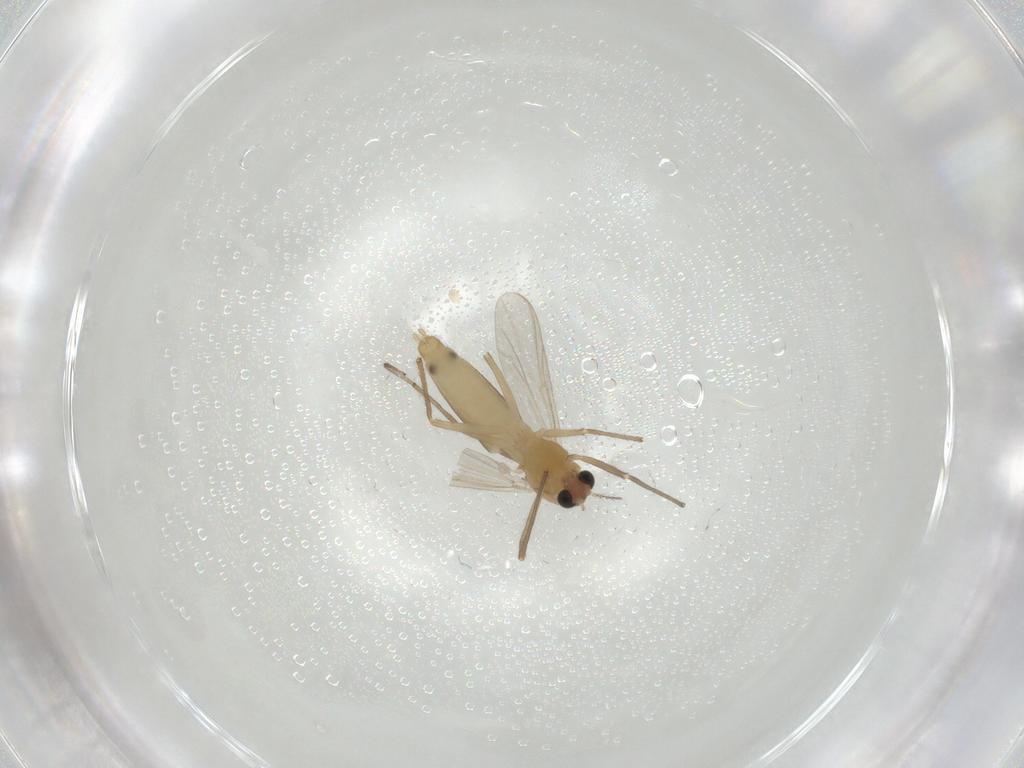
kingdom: Animalia
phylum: Arthropoda
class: Insecta
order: Diptera
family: Chironomidae
